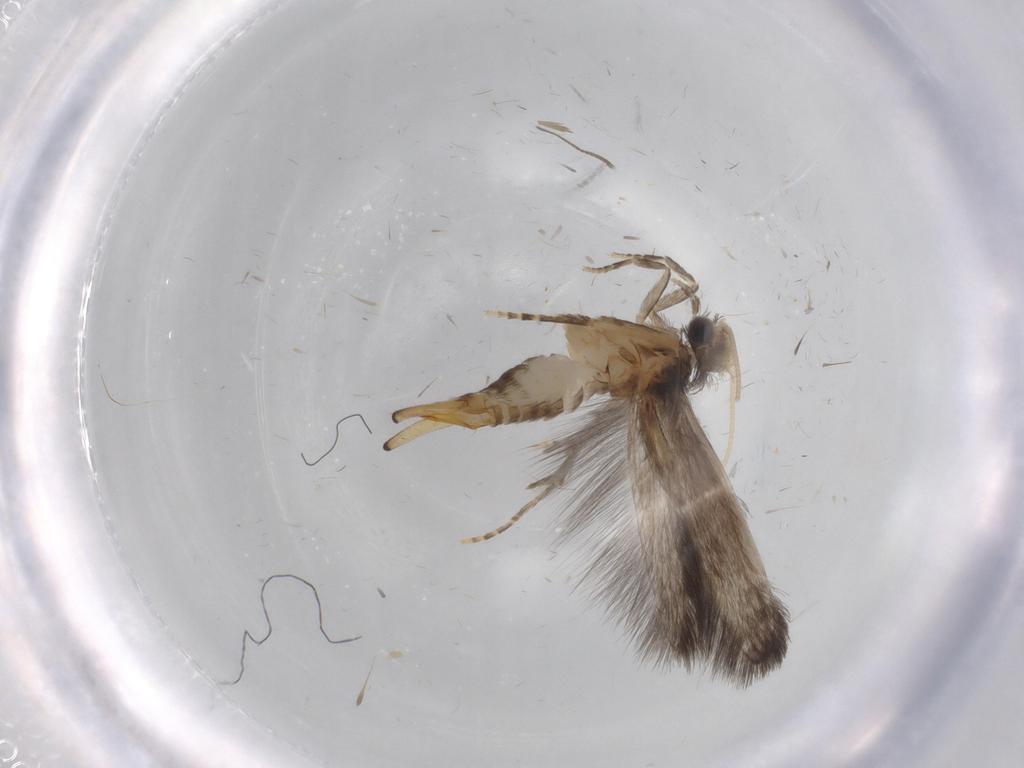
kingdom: Animalia
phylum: Arthropoda
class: Insecta
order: Trichoptera
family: Hydroptilidae
